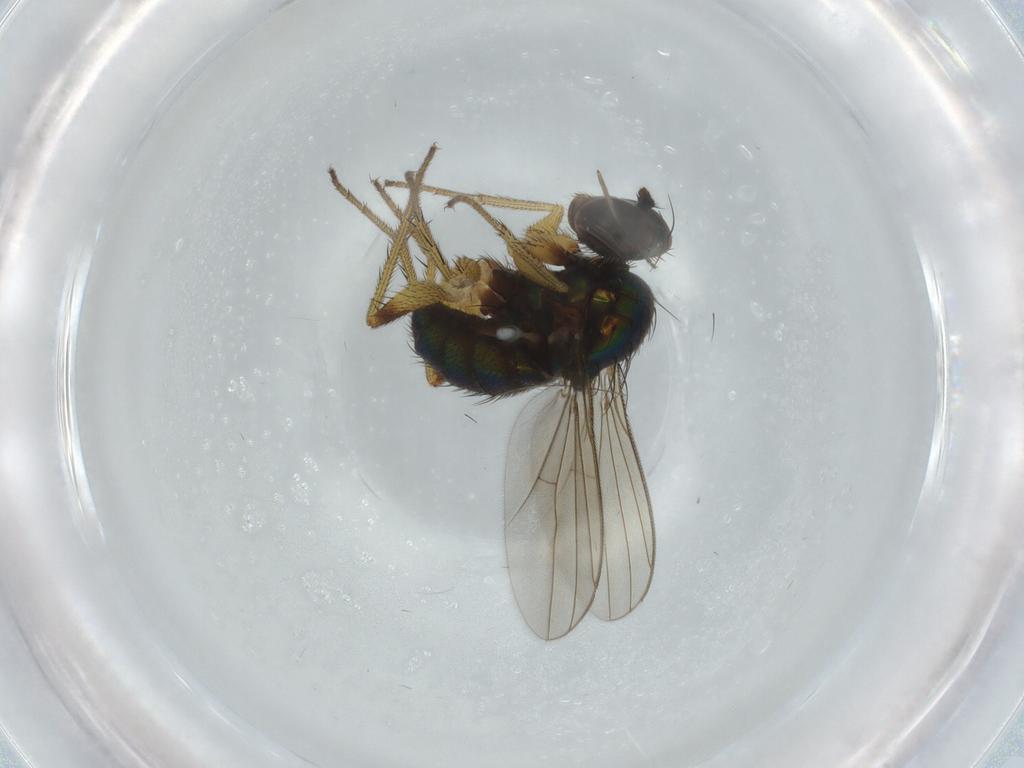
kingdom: Animalia
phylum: Arthropoda
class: Insecta
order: Diptera
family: Dolichopodidae
